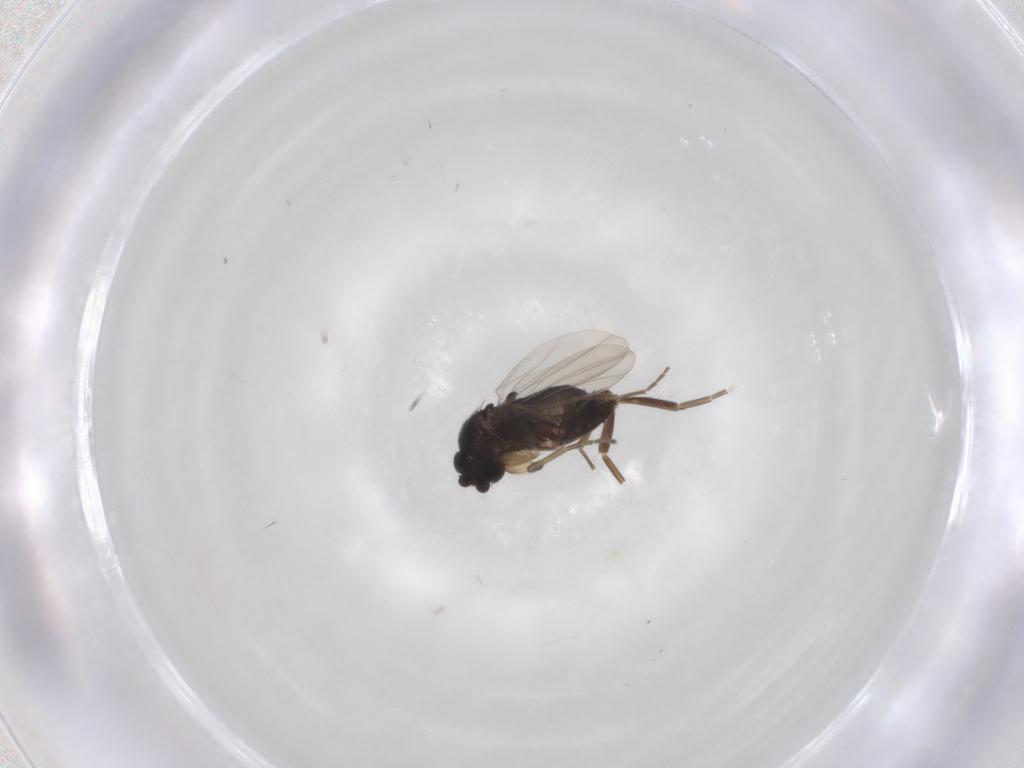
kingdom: Animalia
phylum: Arthropoda
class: Insecta
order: Diptera
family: Phoridae
